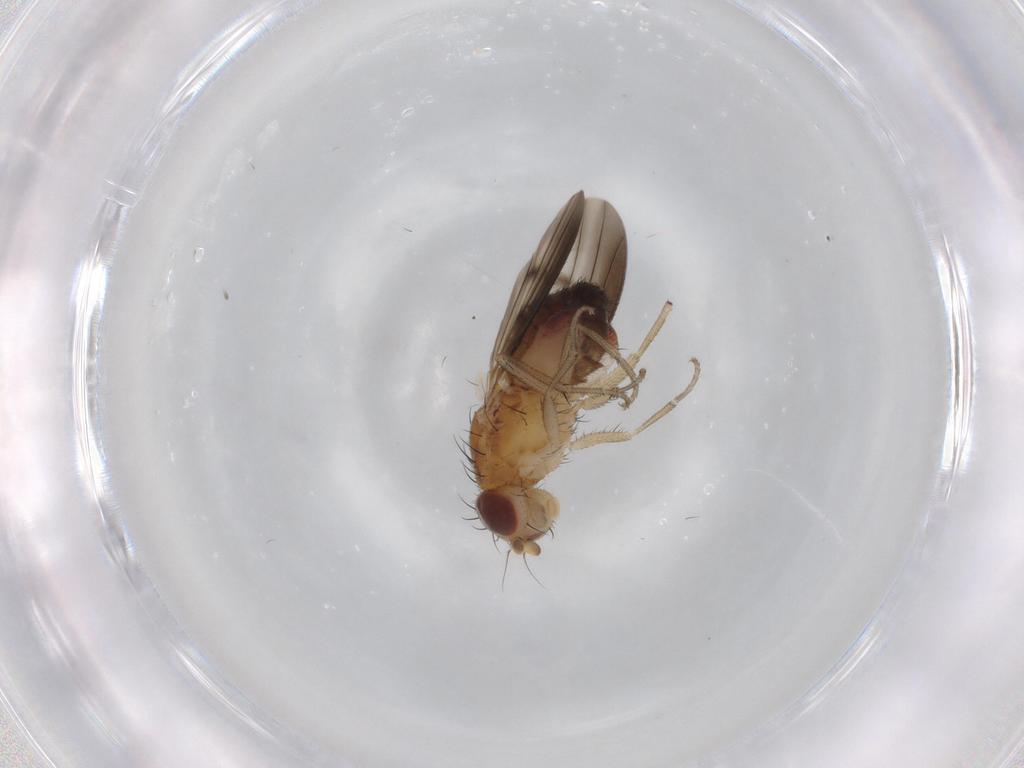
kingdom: Animalia
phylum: Arthropoda
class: Insecta
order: Diptera
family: Heleomyzidae
